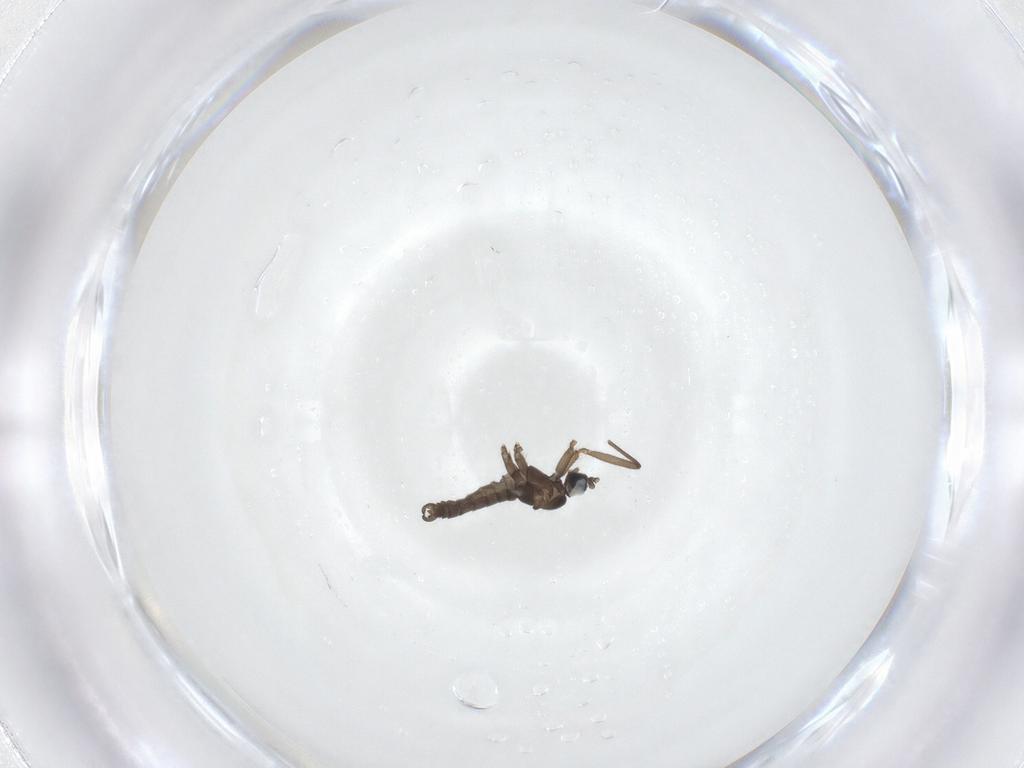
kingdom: Animalia
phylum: Arthropoda
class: Insecta
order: Diptera
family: Sciaridae
